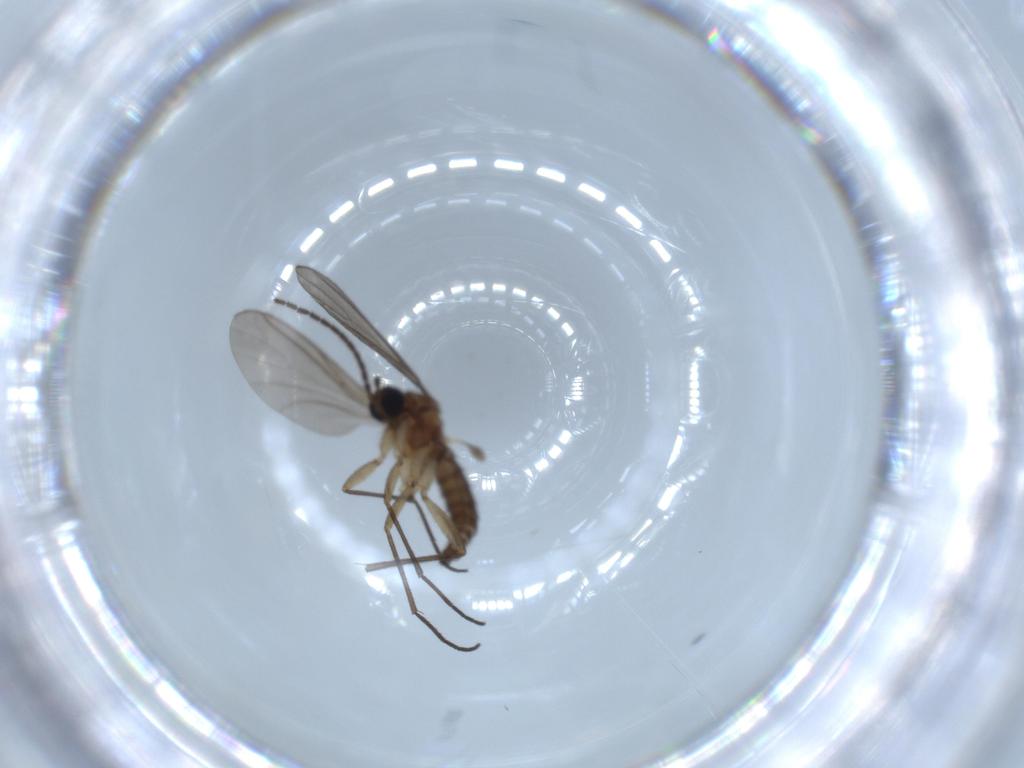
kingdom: Animalia
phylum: Arthropoda
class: Insecta
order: Diptera
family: Sciaridae
